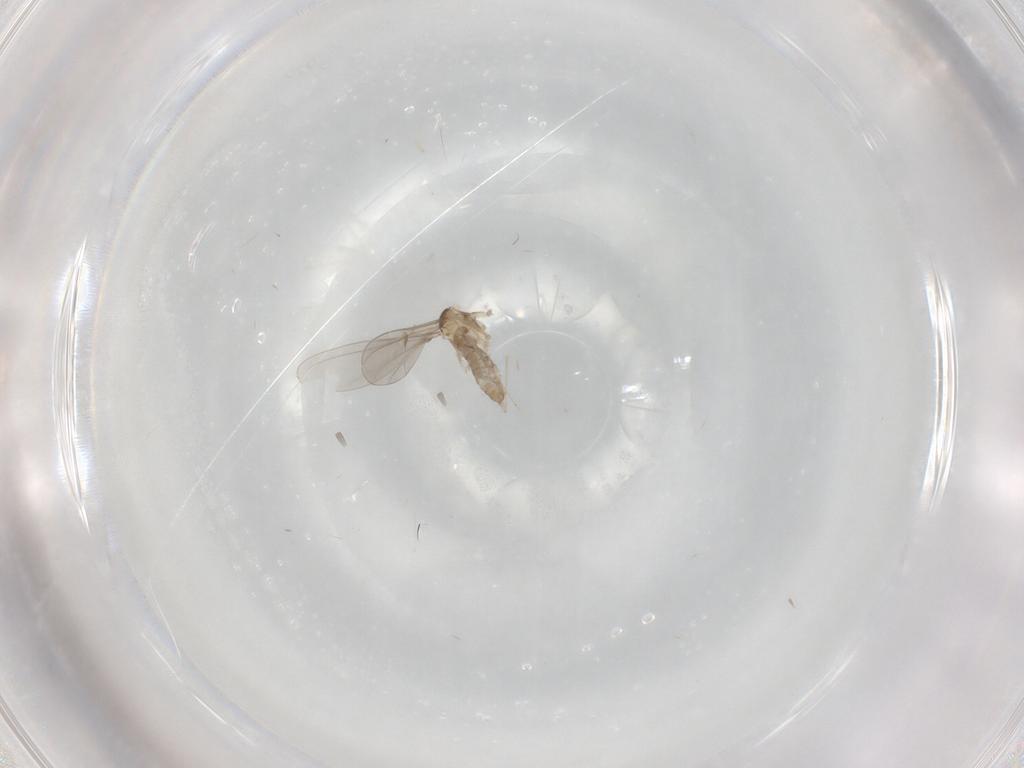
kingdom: Animalia
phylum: Arthropoda
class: Insecta
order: Diptera
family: Cecidomyiidae
